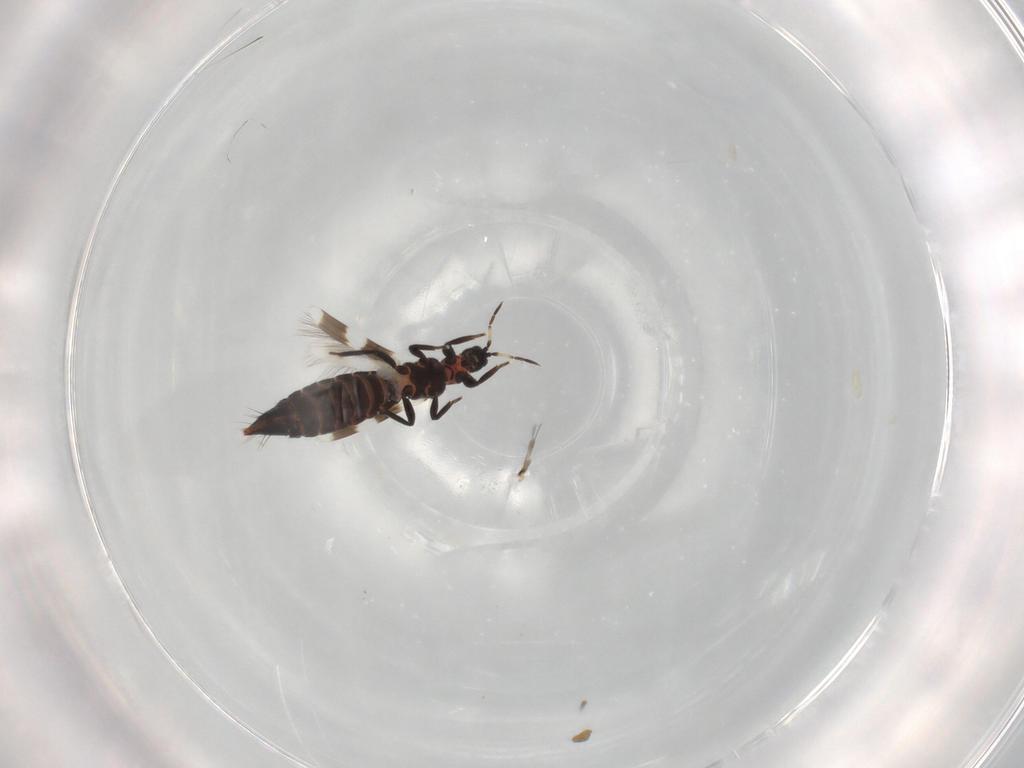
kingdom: Animalia
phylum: Arthropoda
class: Insecta
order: Thysanoptera
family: Aeolothripidae
